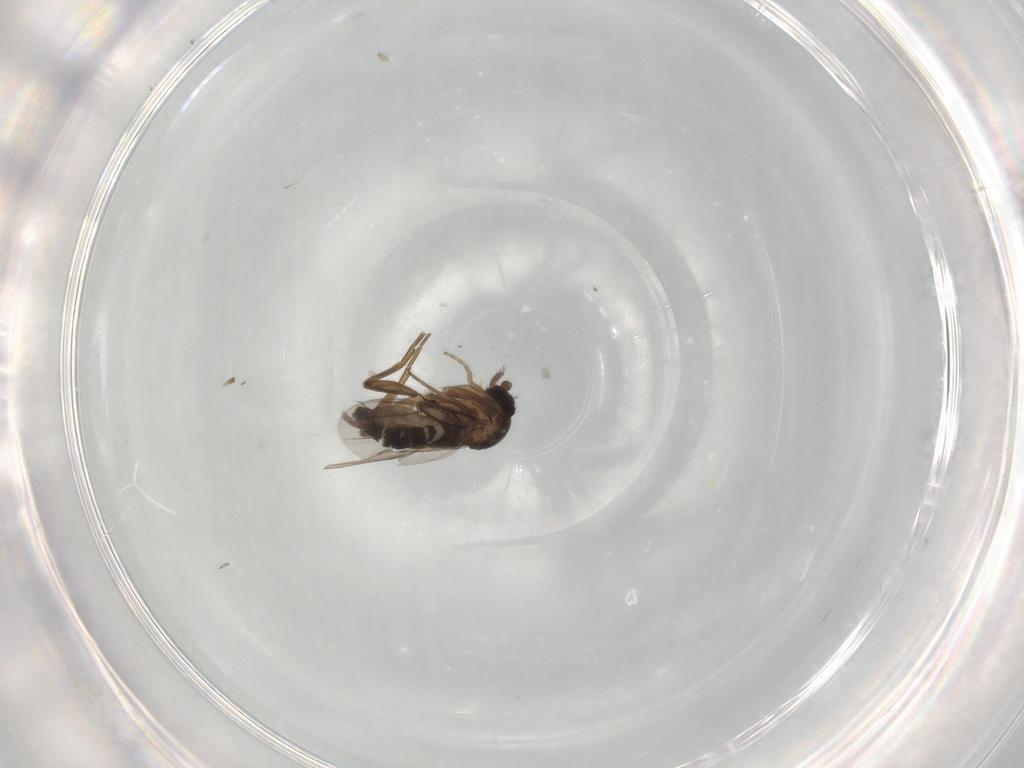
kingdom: Animalia
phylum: Arthropoda
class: Insecta
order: Diptera
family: Phoridae
